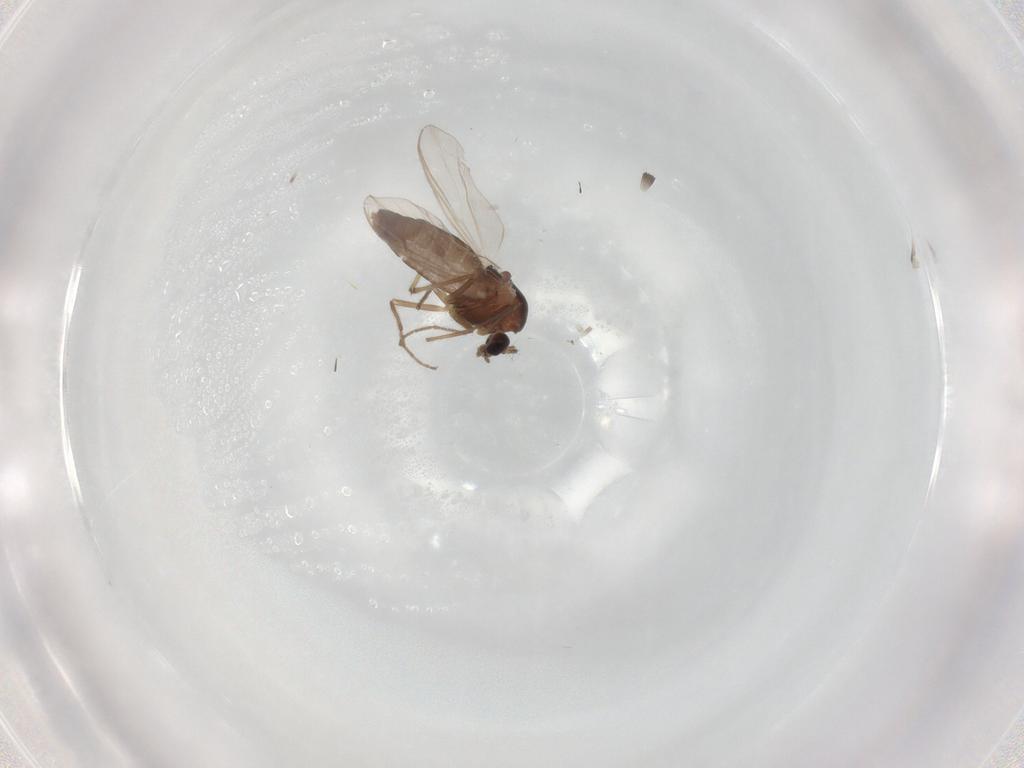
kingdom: Animalia
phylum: Arthropoda
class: Insecta
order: Diptera
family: Chironomidae
